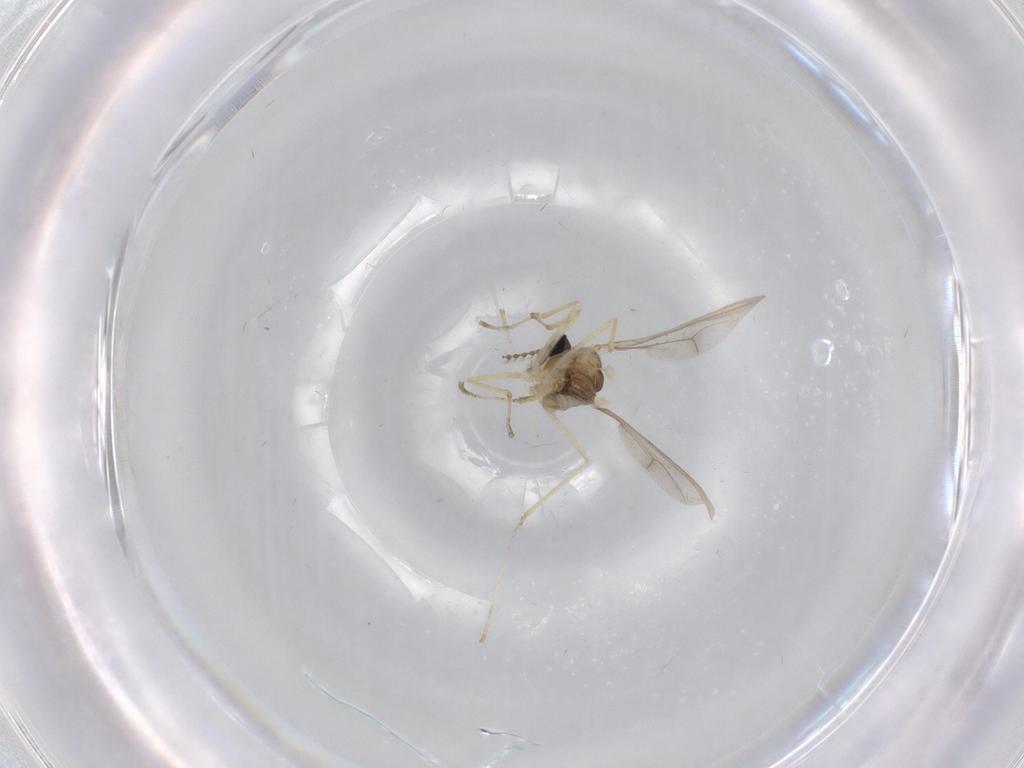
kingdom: Animalia
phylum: Arthropoda
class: Insecta
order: Diptera
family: Cecidomyiidae
